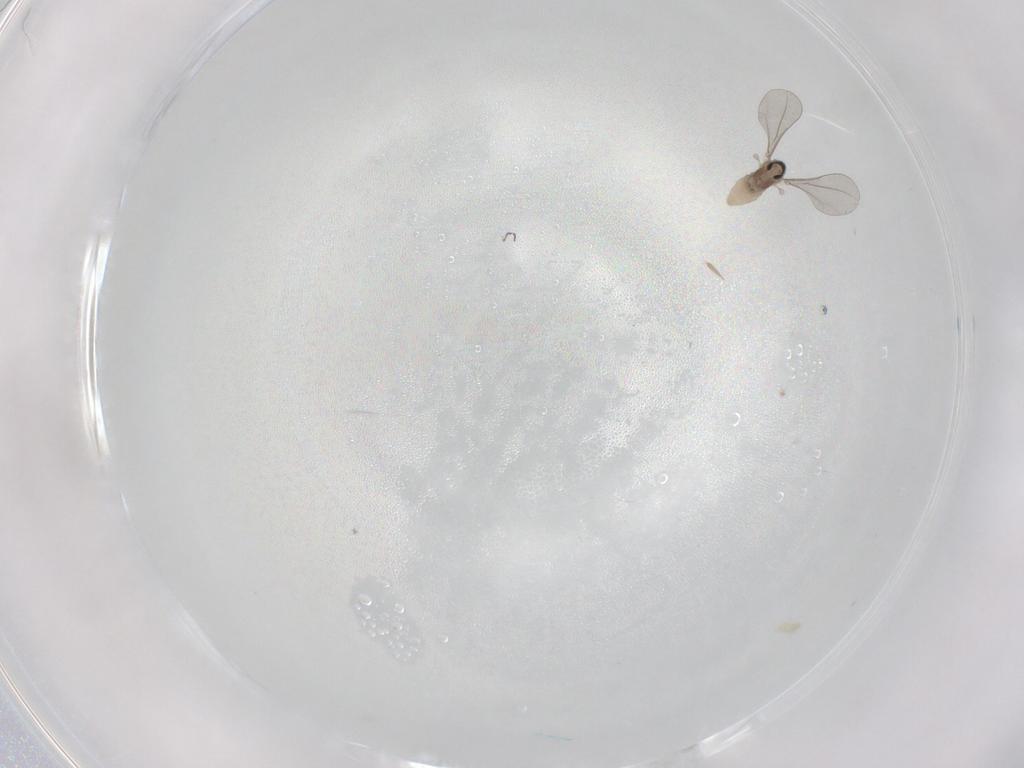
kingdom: Animalia
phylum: Arthropoda
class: Insecta
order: Diptera
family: Cecidomyiidae
